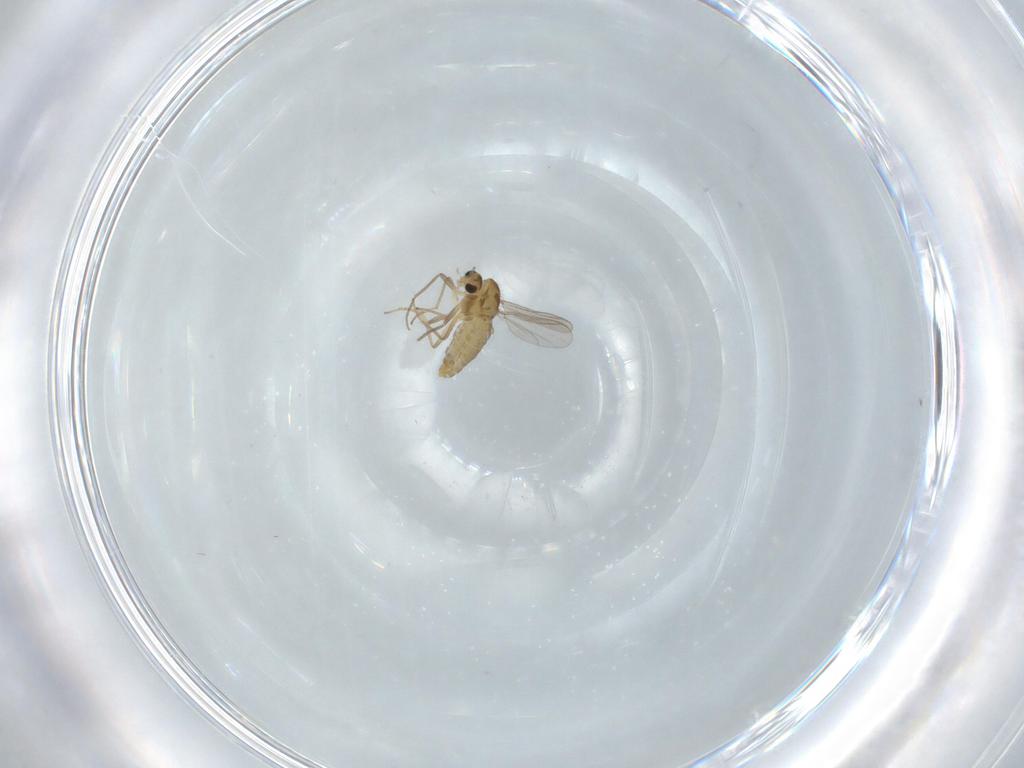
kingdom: Animalia
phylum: Arthropoda
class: Insecta
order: Diptera
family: Chironomidae
